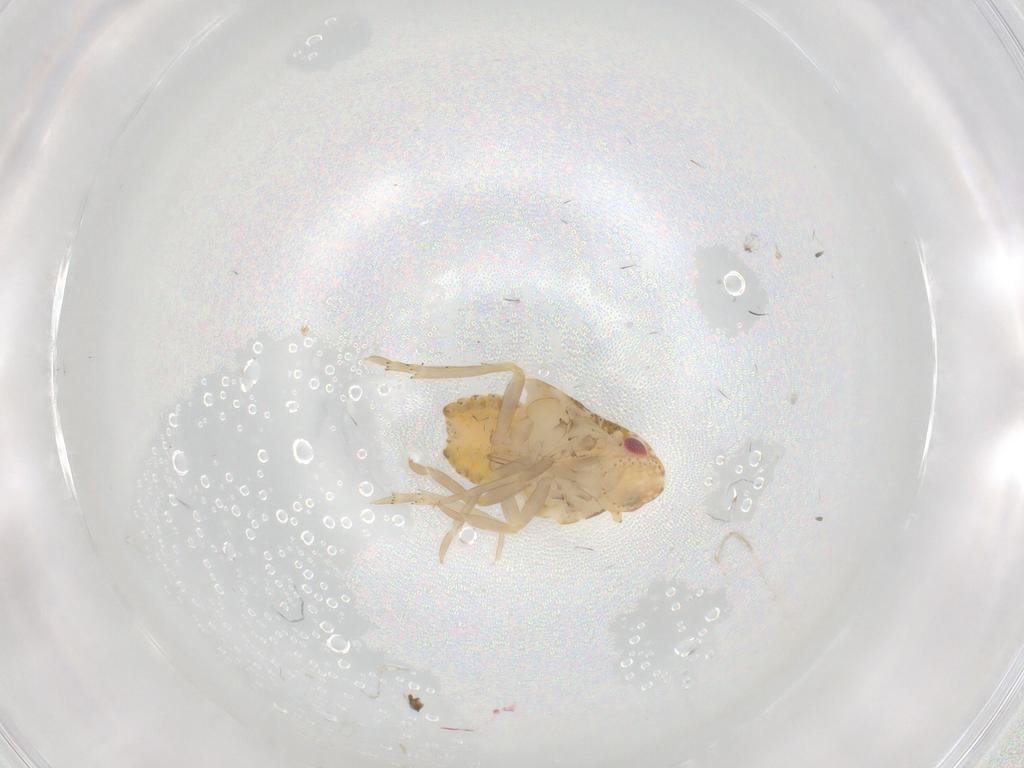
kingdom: Animalia
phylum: Arthropoda
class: Insecta
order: Hemiptera
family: Flatidae
